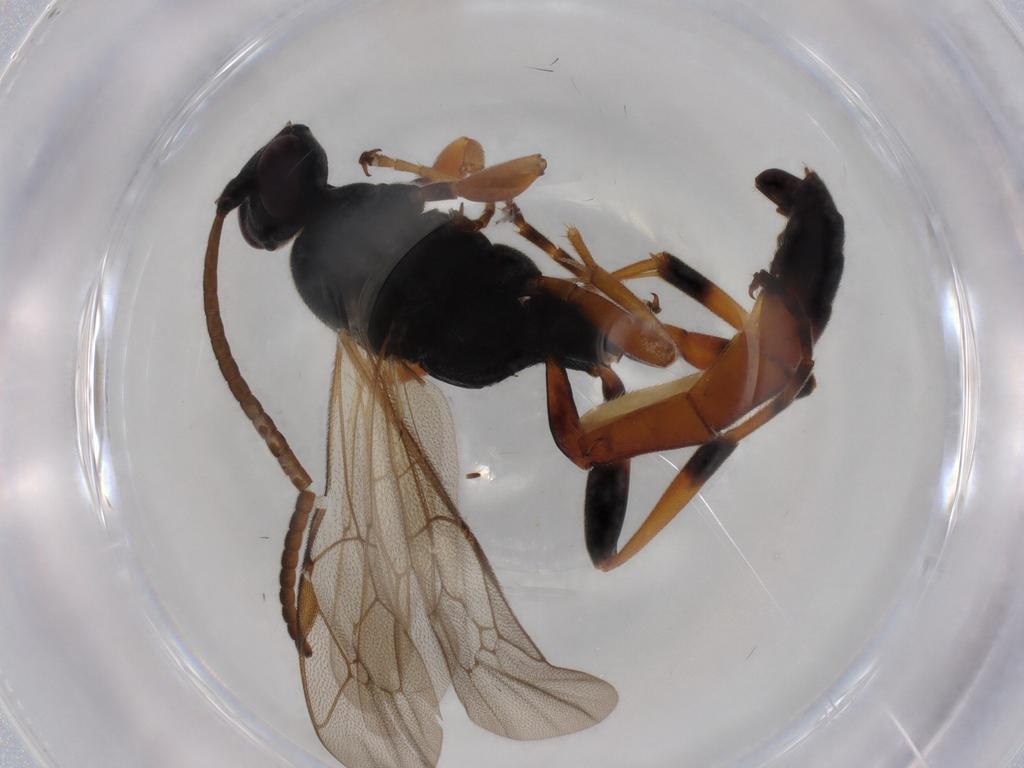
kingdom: Animalia
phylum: Arthropoda
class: Insecta
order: Hymenoptera
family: Ichneumonidae
